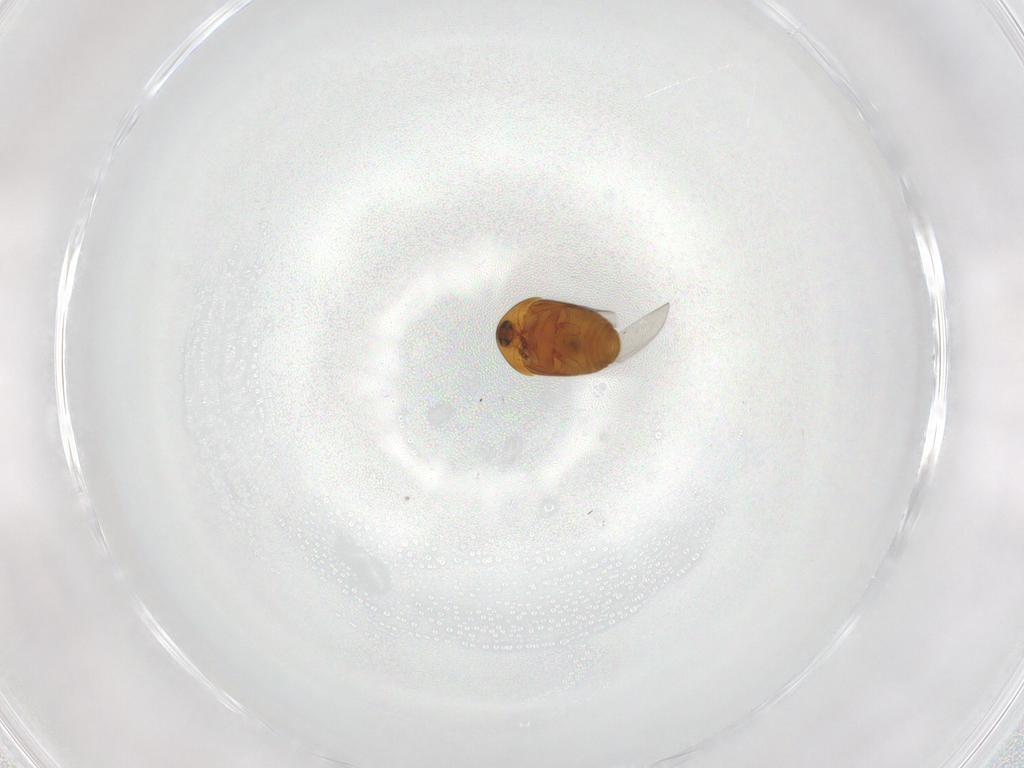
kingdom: Animalia
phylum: Arthropoda
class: Insecta
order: Coleoptera
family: Corylophidae
